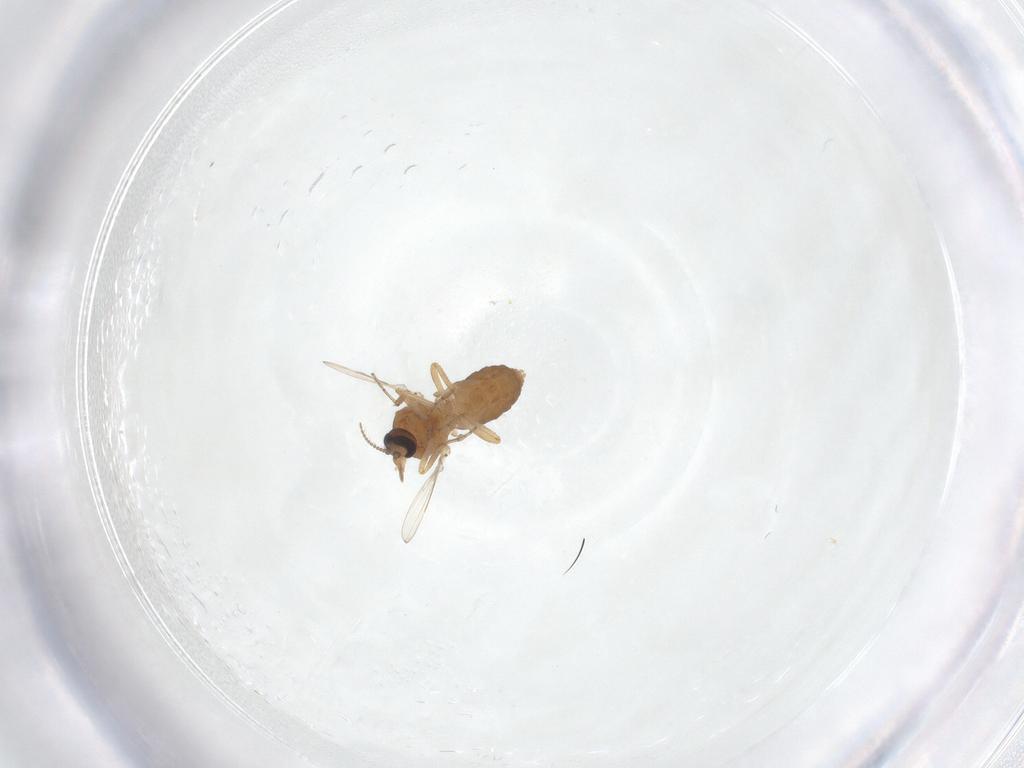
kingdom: Animalia
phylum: Arthropoda
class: Insecta
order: Diptera
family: Ceratopogonidae
